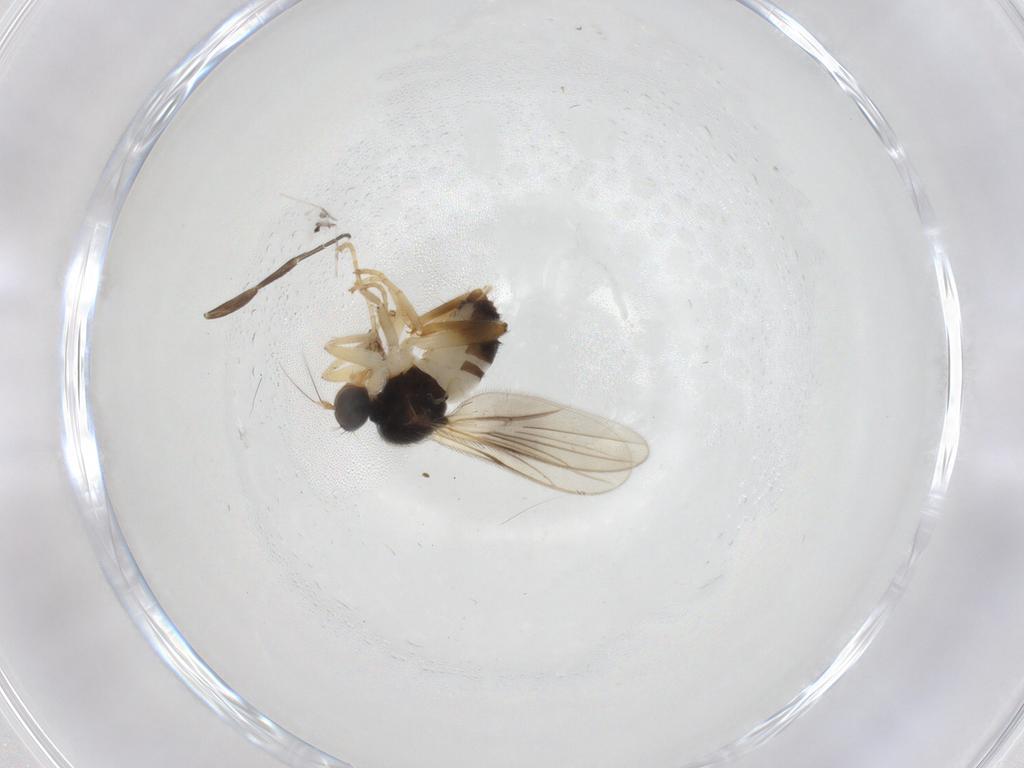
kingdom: Animalia
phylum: Arthropoda
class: Insecta
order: Diptera
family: Hybotidae
